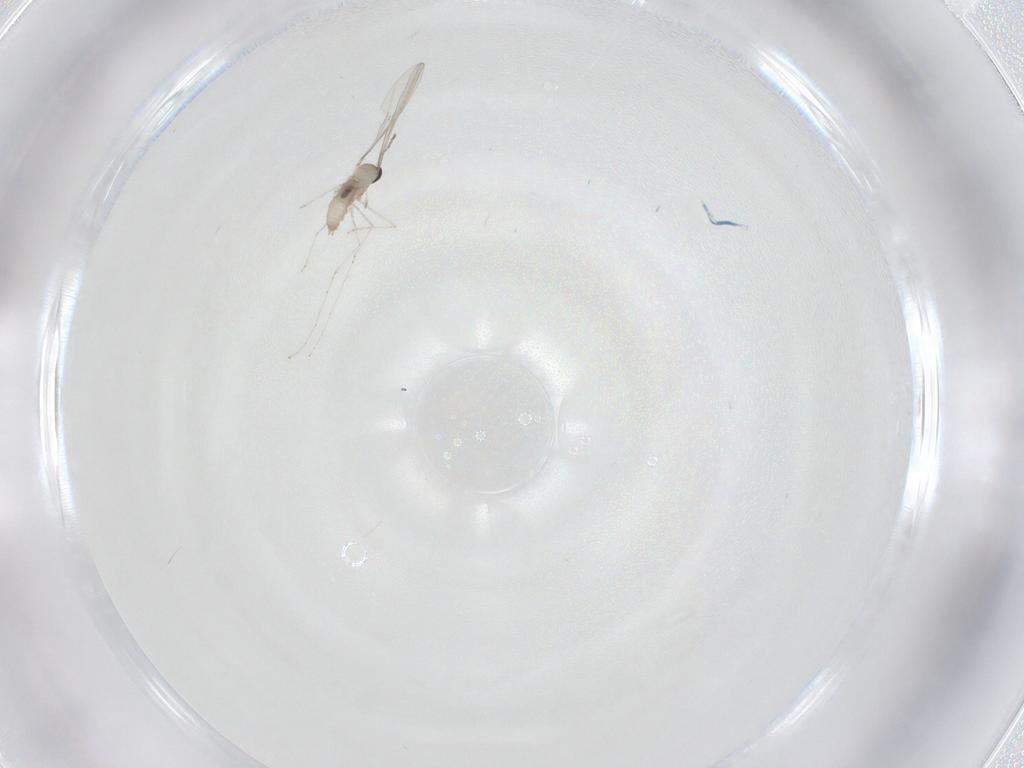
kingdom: Animalia
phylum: Arthropoda
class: Insecta
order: Diptera
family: Cecidomyiidae
